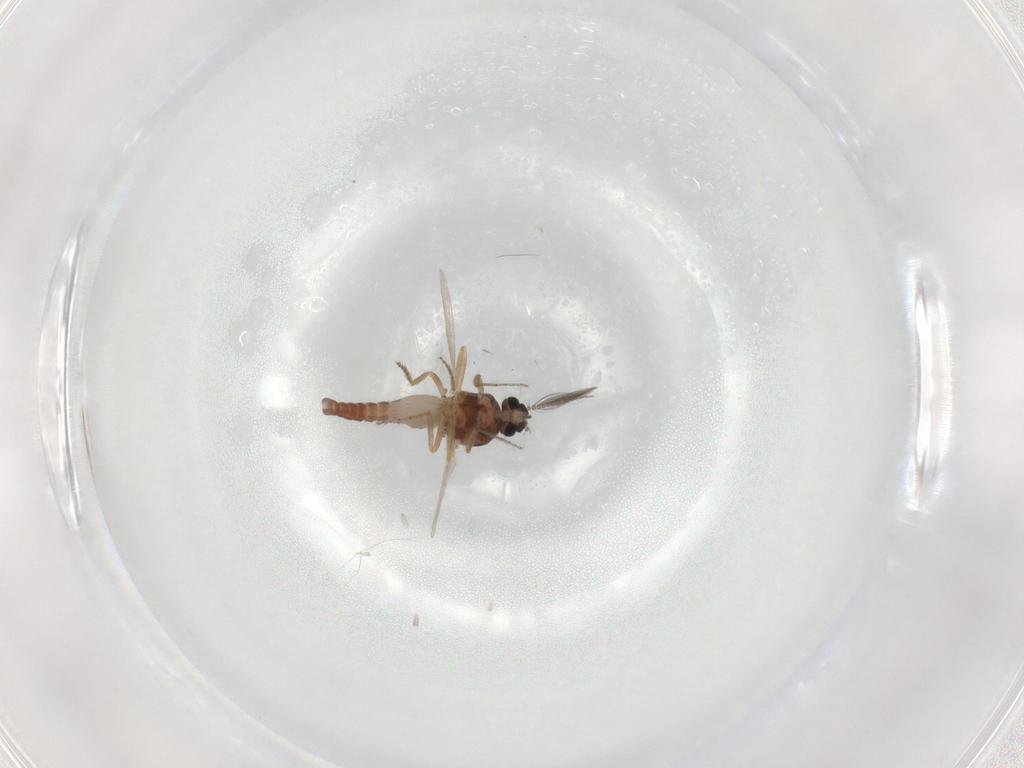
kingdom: Animalia
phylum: Arthropoda
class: Insecta
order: Diptera
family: Ceratopogonidae
